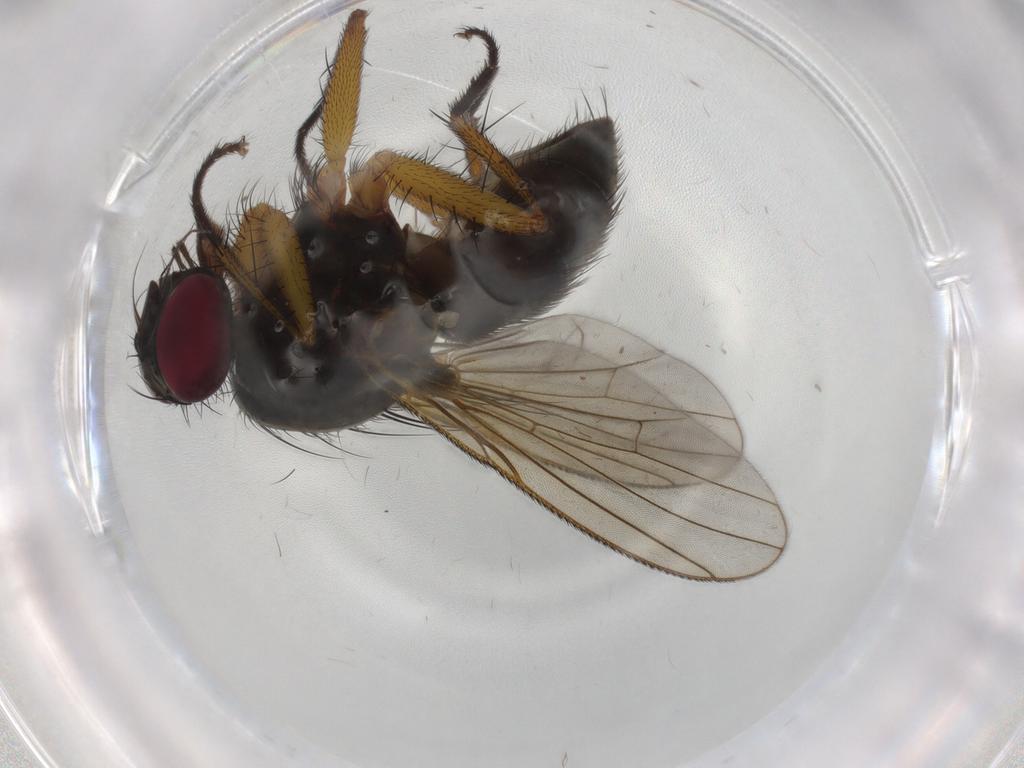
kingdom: Animalia
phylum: Arthropoda
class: Insecta
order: Diptera
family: Muscidae
